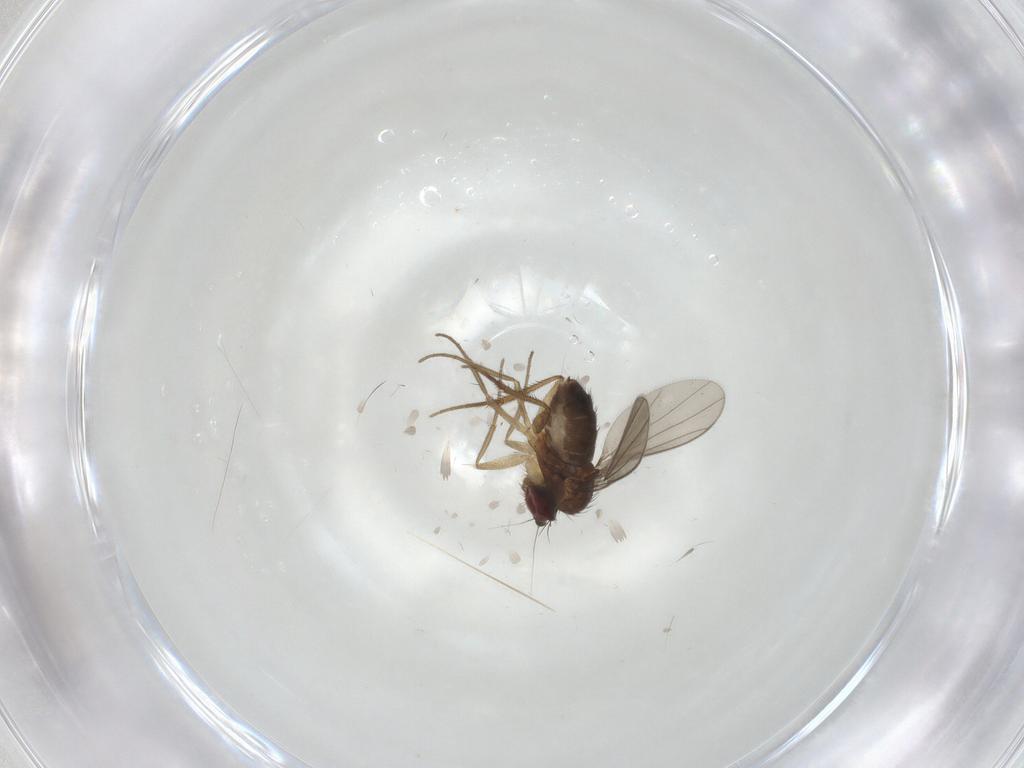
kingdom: Animalia
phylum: Arthropoda
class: Insecta
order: Diptera
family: Dolichopodidae
